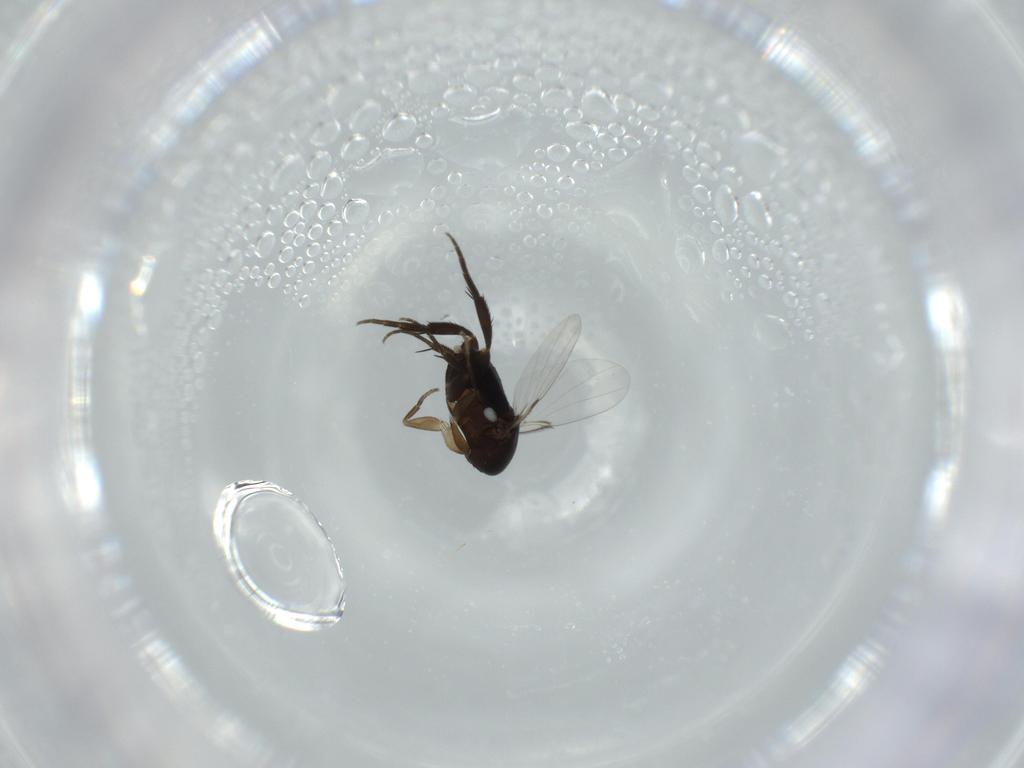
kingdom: Animalia
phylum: Arthropoda
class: Insecta
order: Diptera
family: Phoridae
